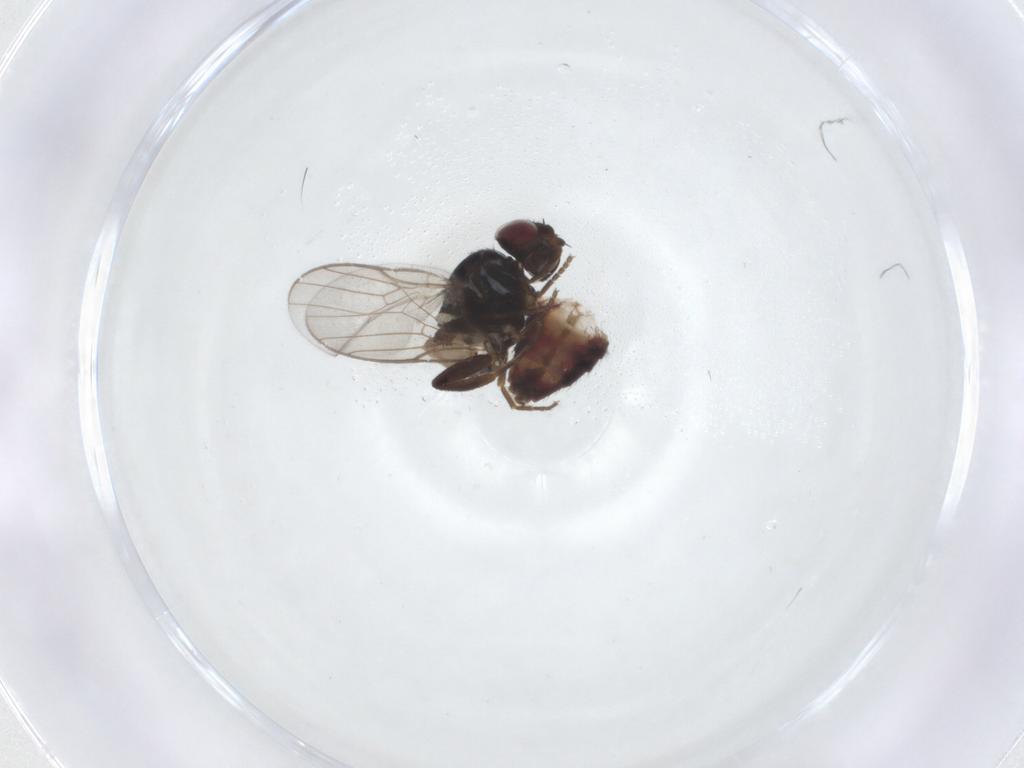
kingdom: Animalia
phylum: Arthropoda
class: Insecta
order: Diptera
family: Chloropidae
